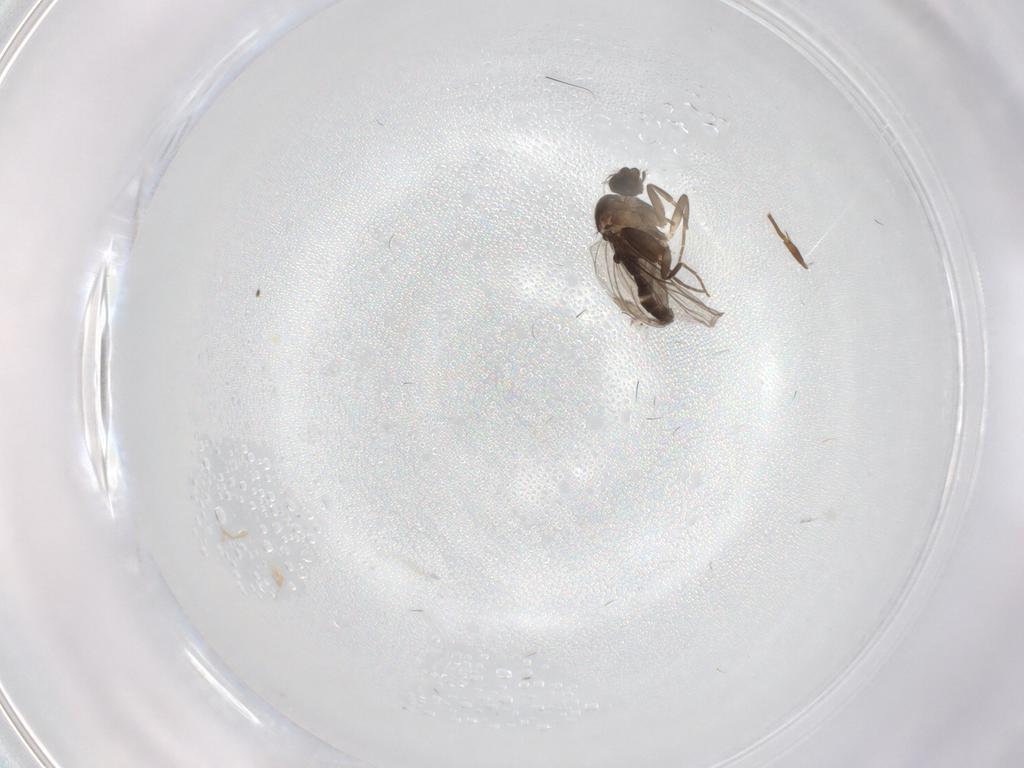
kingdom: Animalia
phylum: Arthropoda
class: Insecta
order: Diptera
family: Phoridae
